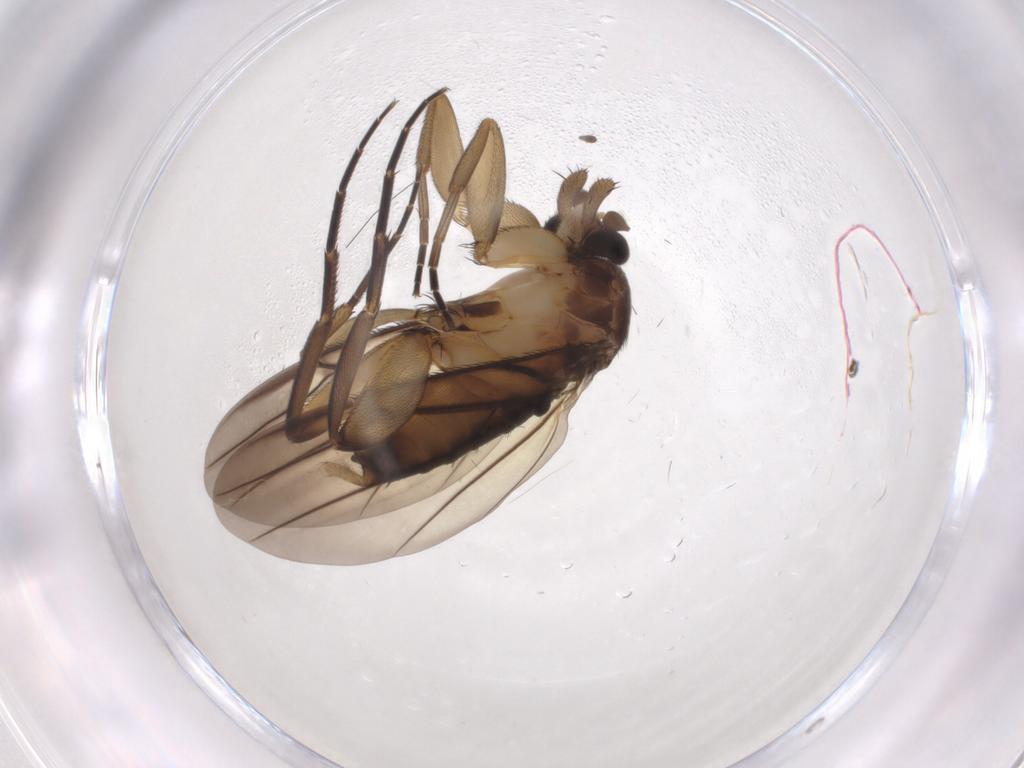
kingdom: Animalia
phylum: Arthropoda
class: Insecta
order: Diptera
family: Phoridae
